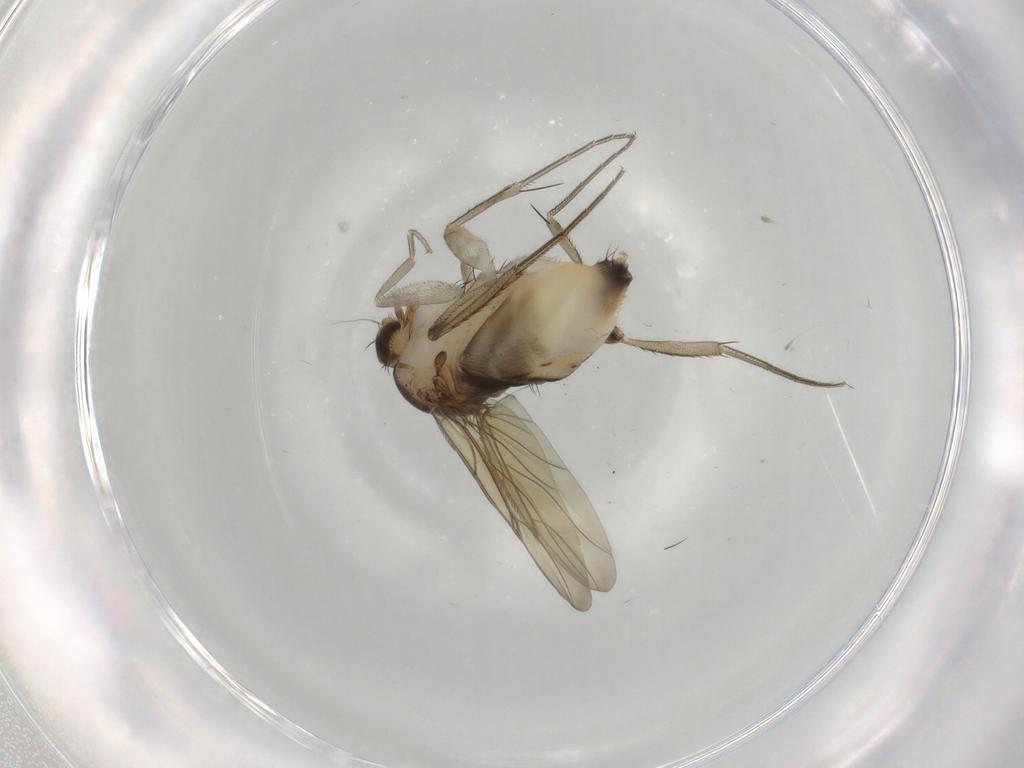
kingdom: Animalia
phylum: Arthropoda
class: Insecta
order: Diptera
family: Phoridae
